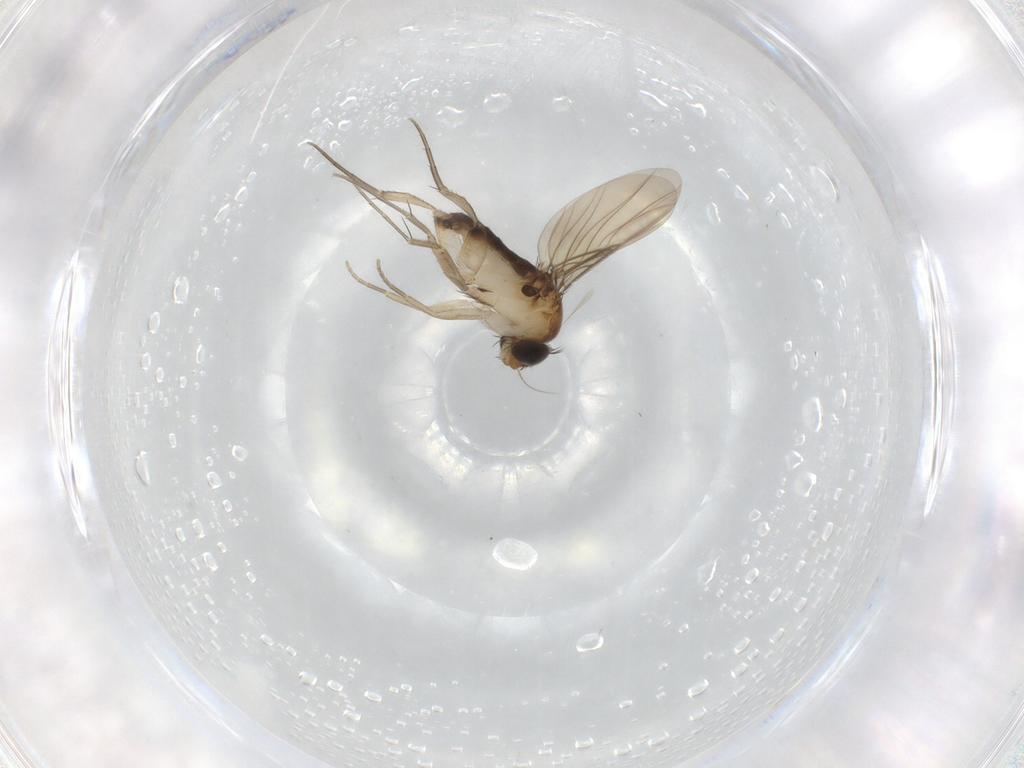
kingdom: Animalia
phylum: Arthropoda
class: Insecta
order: Diptera
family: Phoridae
